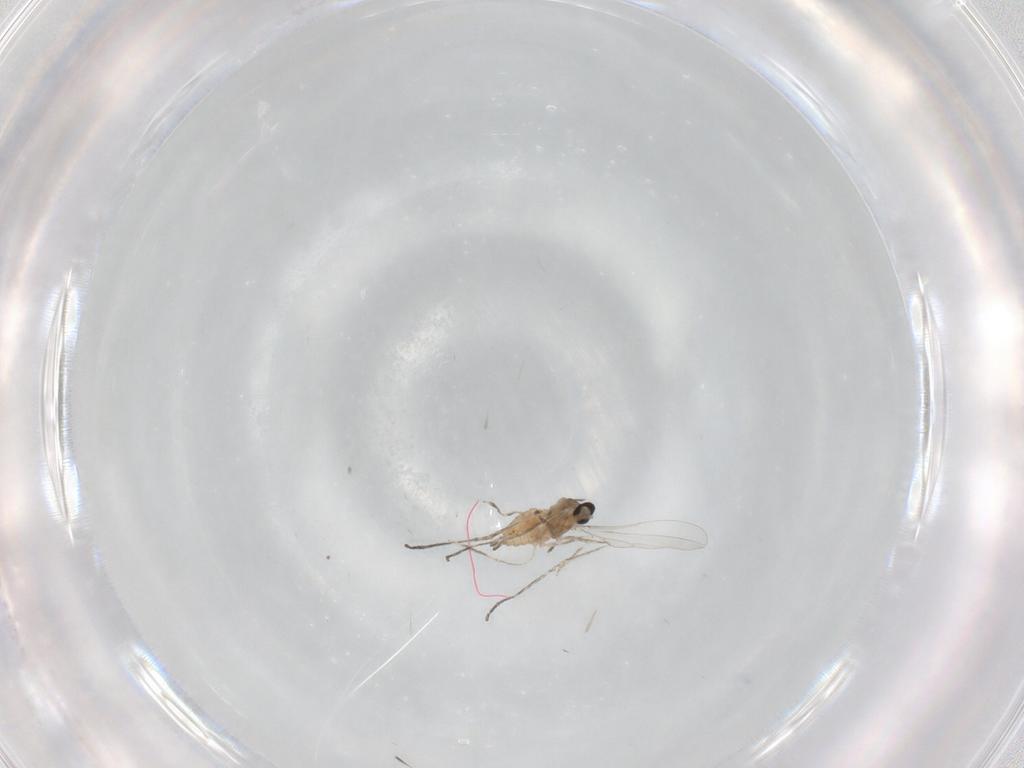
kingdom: Animalia
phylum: Arthropoda
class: Insecta
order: Diptera
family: Cecidomyiidae
